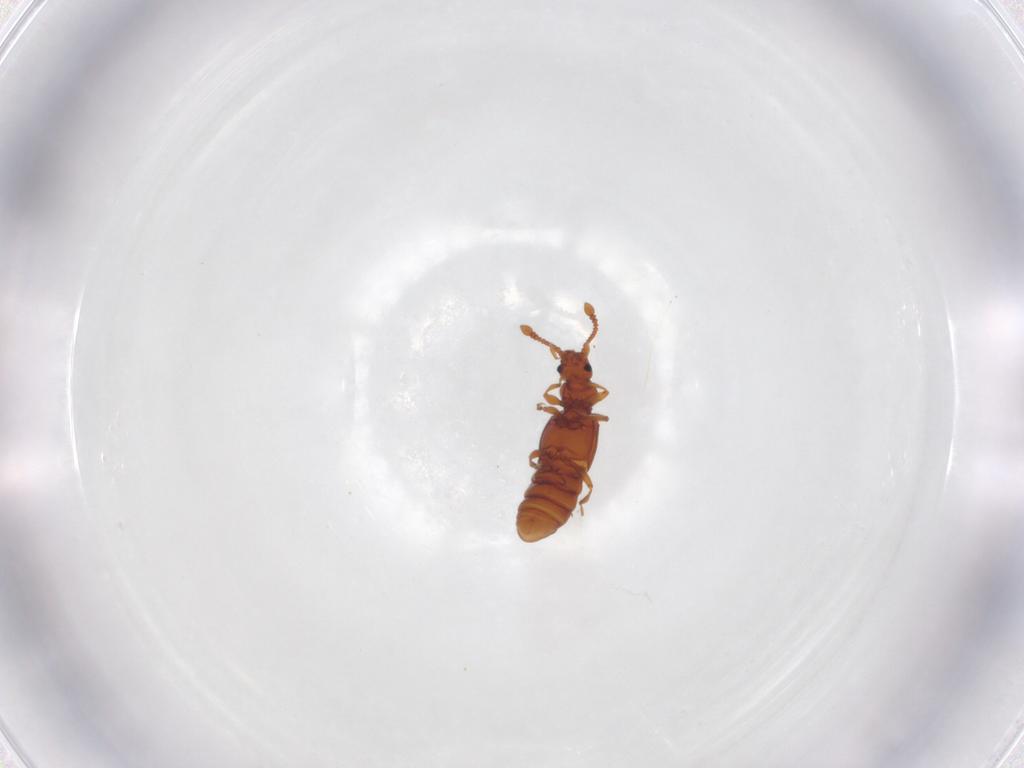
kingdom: Animalia
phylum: Arthropoda
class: Insecta
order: Coleoptera
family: Staphylinidae
